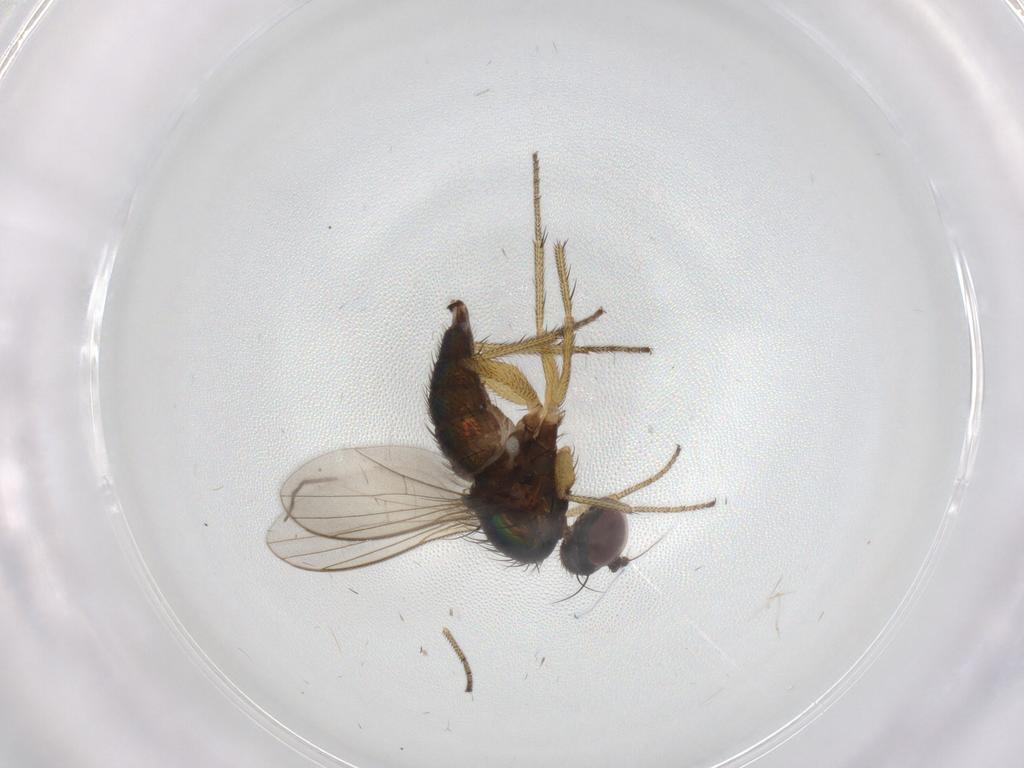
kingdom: Animalia
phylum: Arthropoda
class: Insecta
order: Diptera
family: Dolichopodidae
